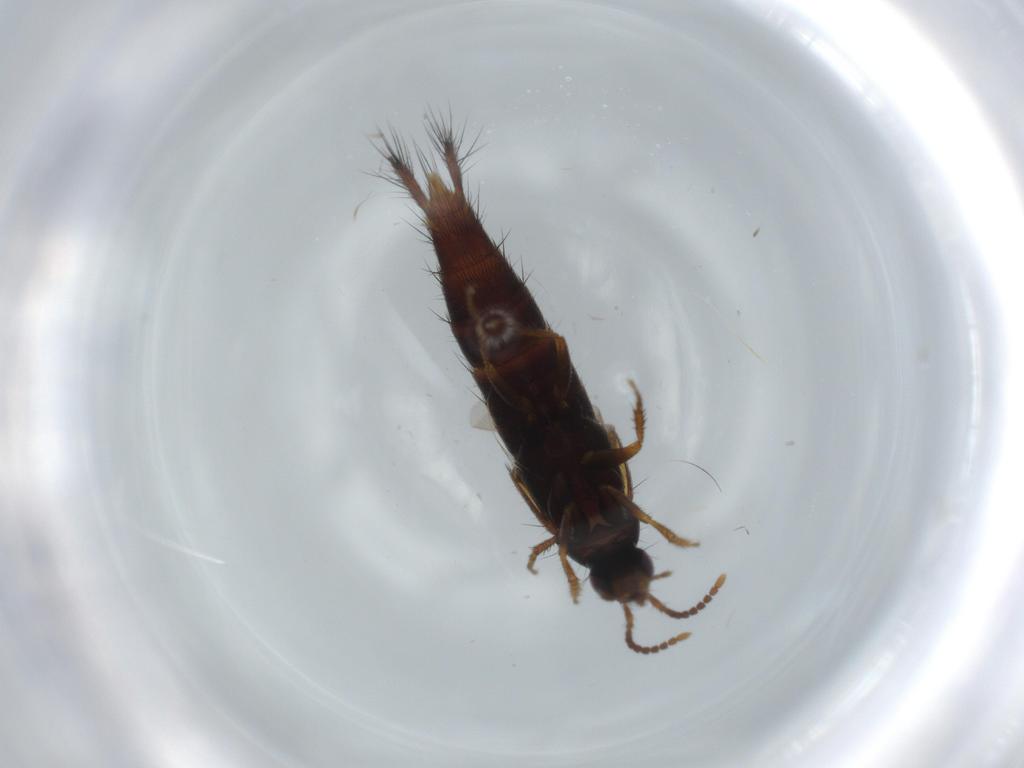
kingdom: Animalia
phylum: Arthropoda
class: Insecta
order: Coleoptera
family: Staphylinidae
